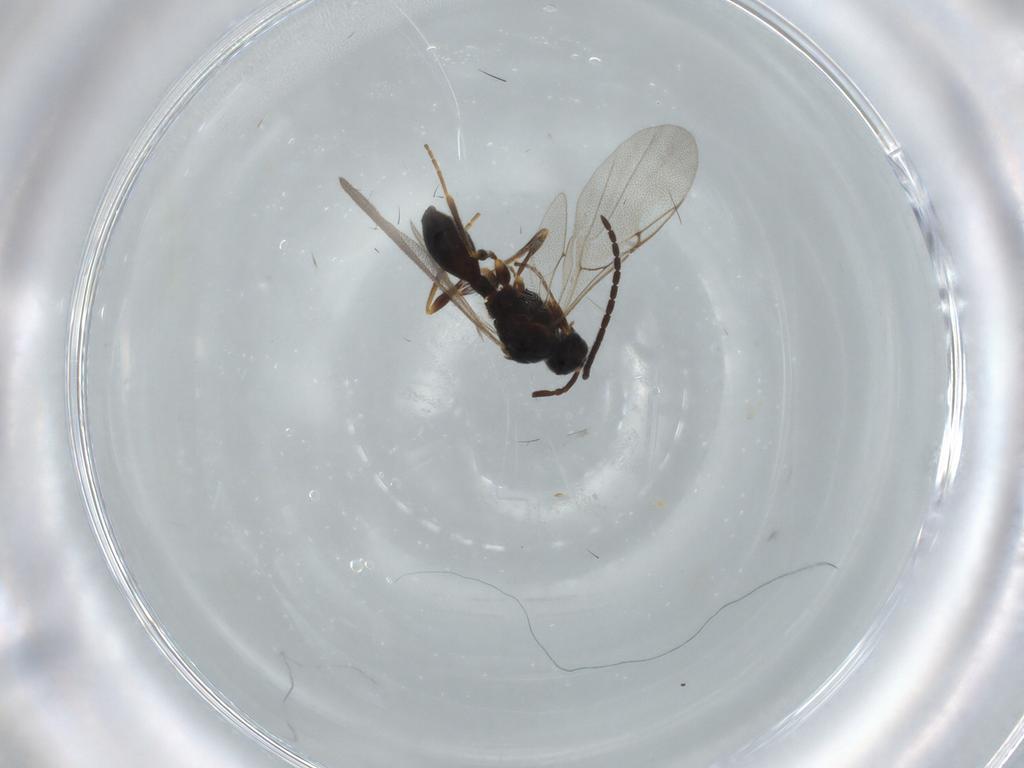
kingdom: Animalia
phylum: Arthropoda
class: Insecta
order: Hymenoptera
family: Diapriidae
